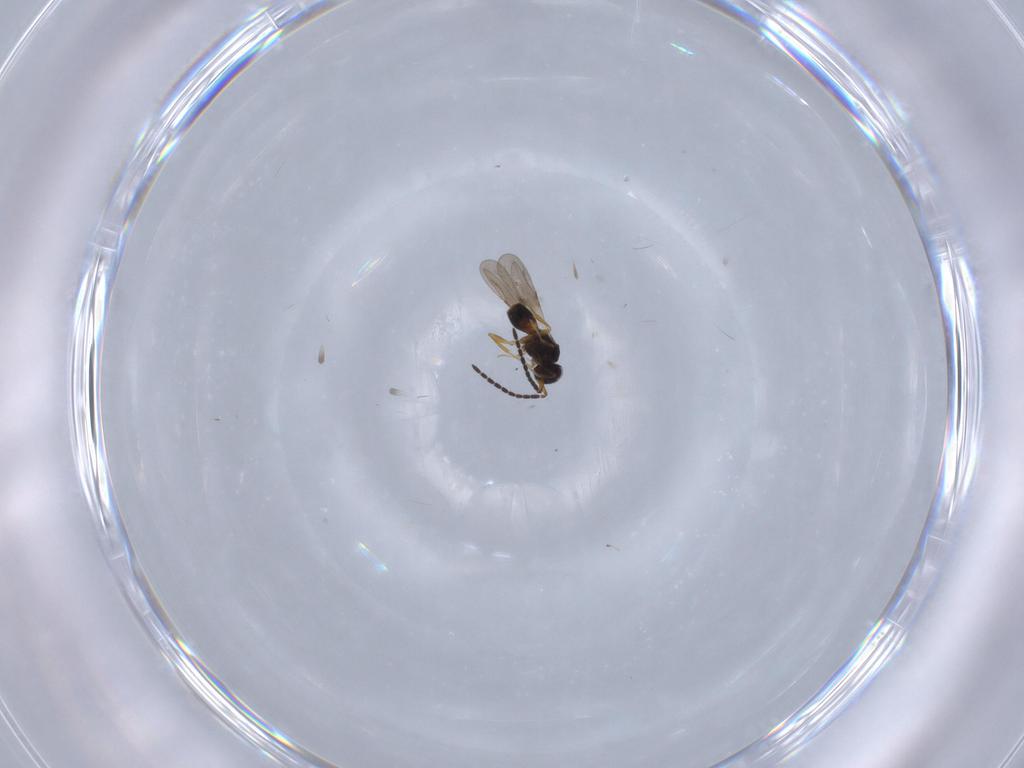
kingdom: Animalia
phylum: Arthropoda
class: Insecta
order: Hymenoptera
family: Ceraphronidae
